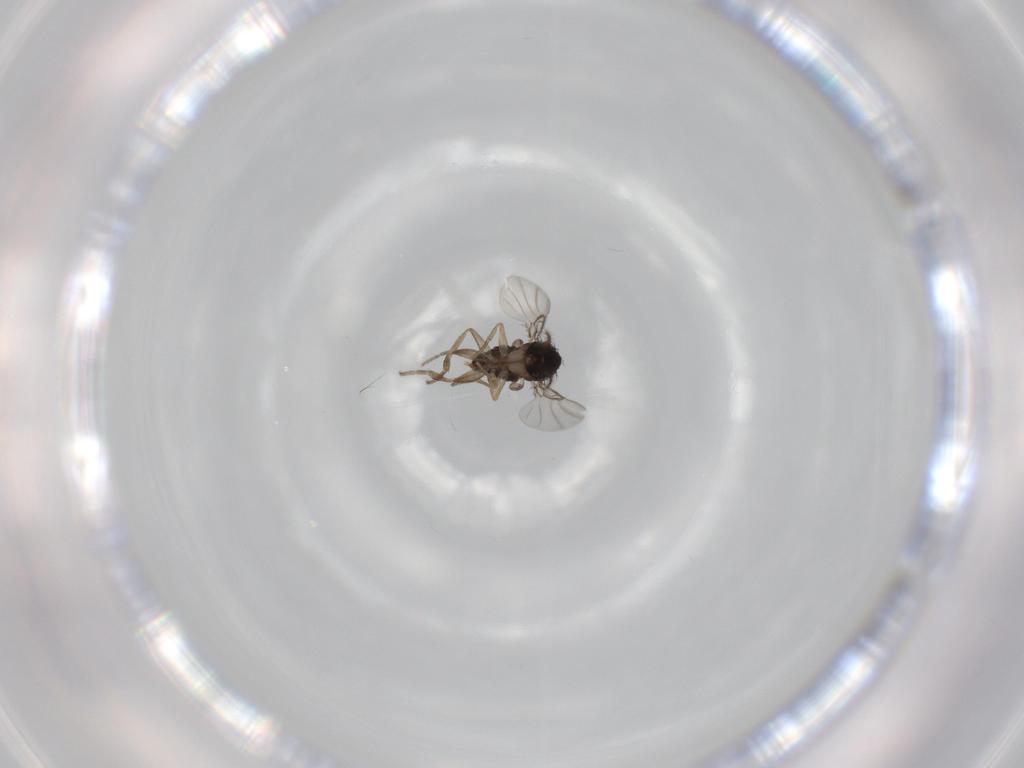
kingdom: Animalia
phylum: Arthropoda
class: Insecta
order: Diptera
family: Phoridae
